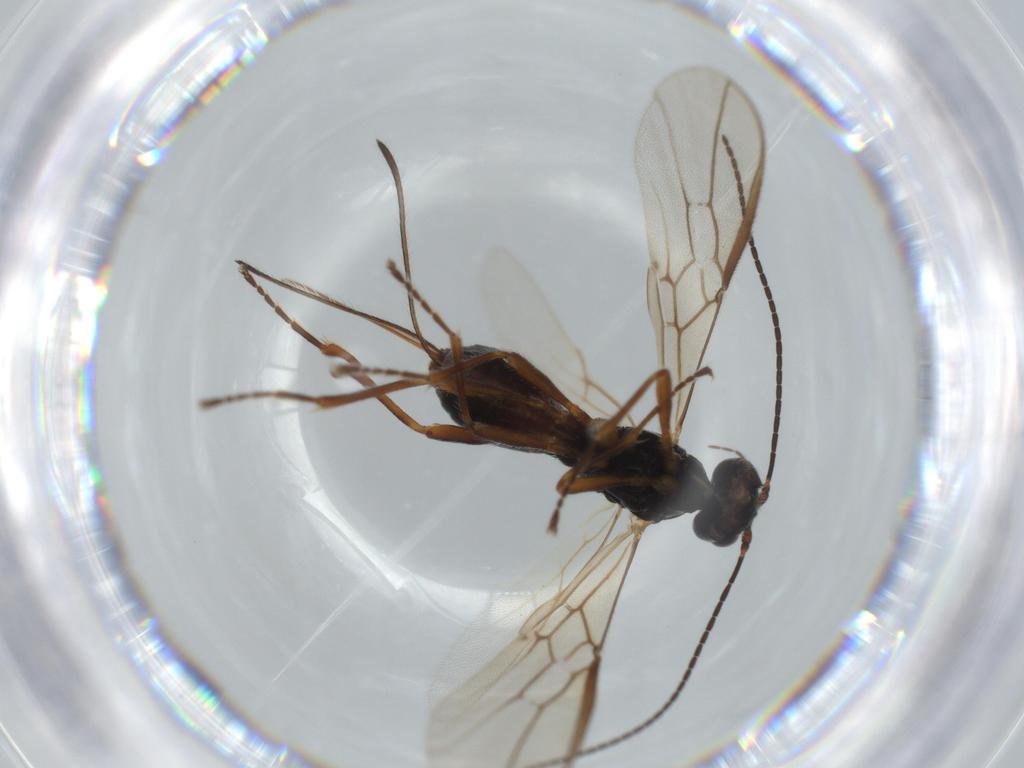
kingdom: Animalia
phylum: Arthropoda
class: Insecta
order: Hymenoptera
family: Braconidae
